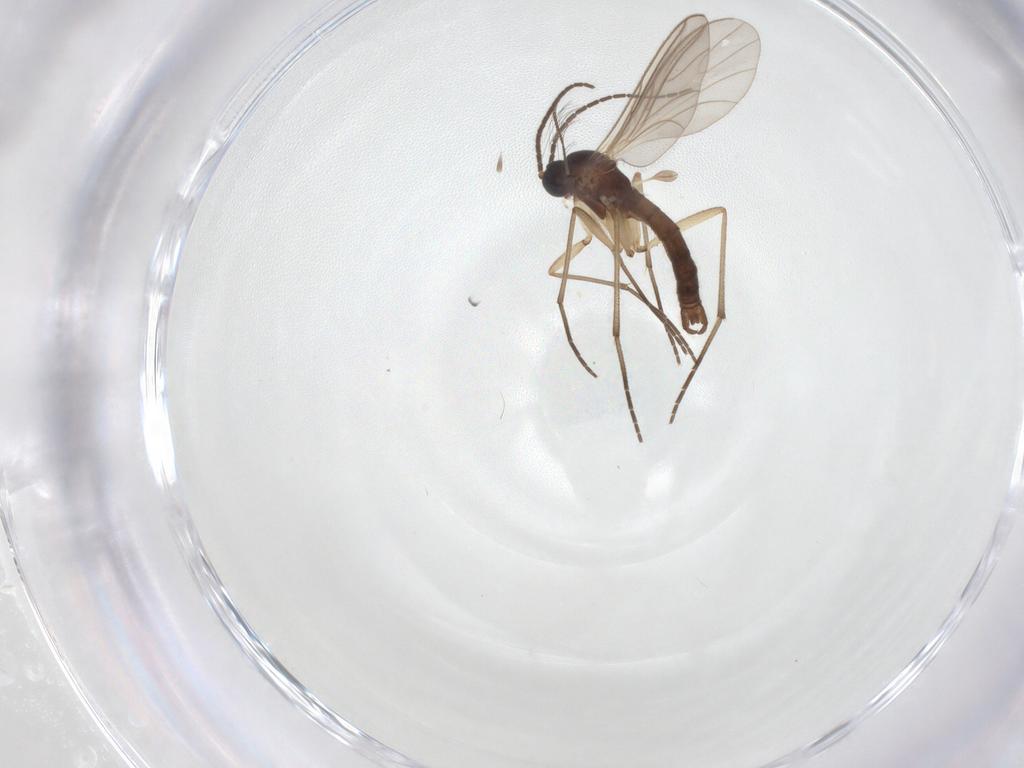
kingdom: Animalia
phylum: Arthropoda
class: Insecta
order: Diptera
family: Sciaridae
